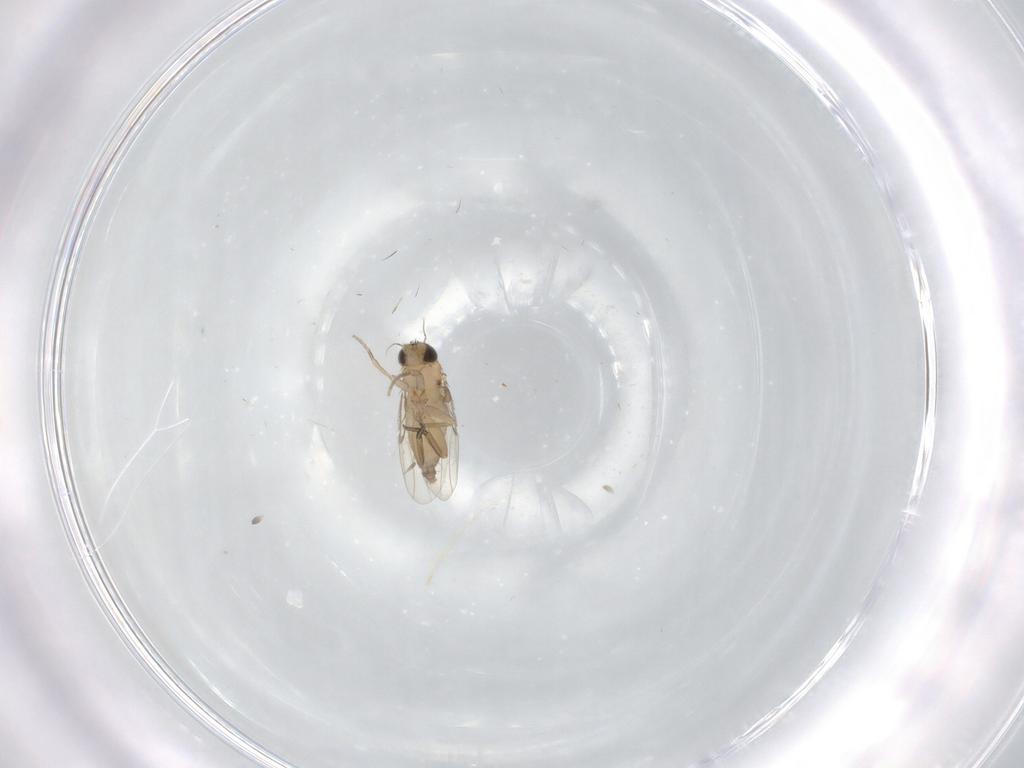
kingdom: Animalia
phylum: Arthropoda
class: Insecta
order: Diptera
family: Phoridae
